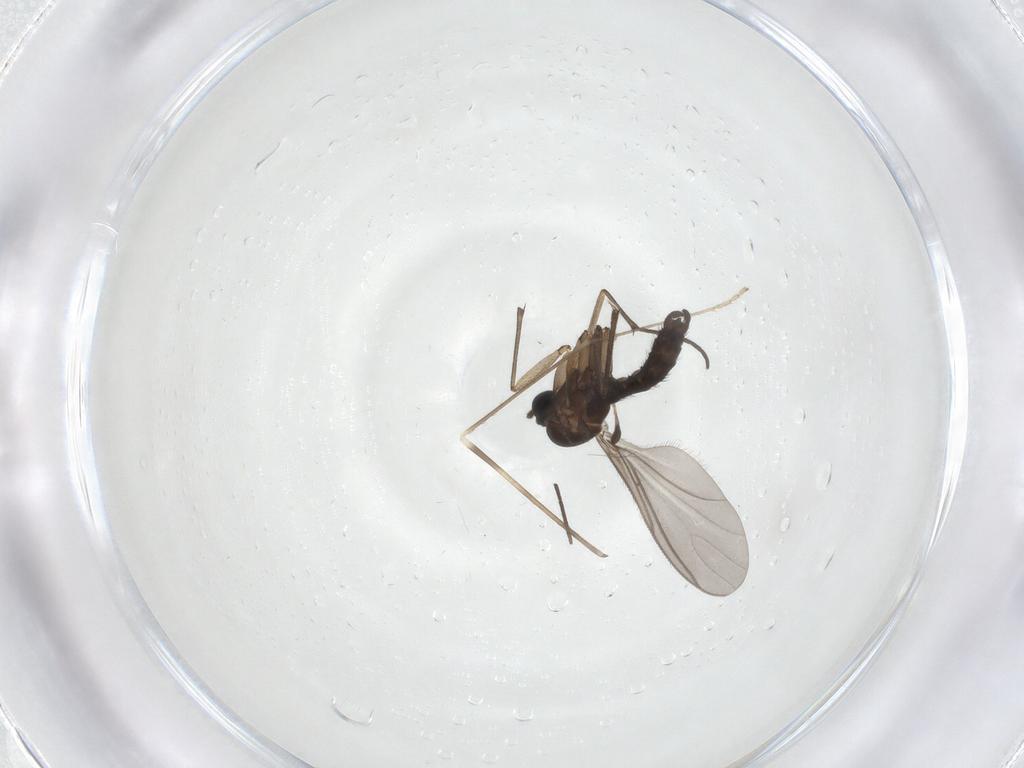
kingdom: Animalia
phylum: Arthropoda
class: Insecta
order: Diptera
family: Sciaridae
